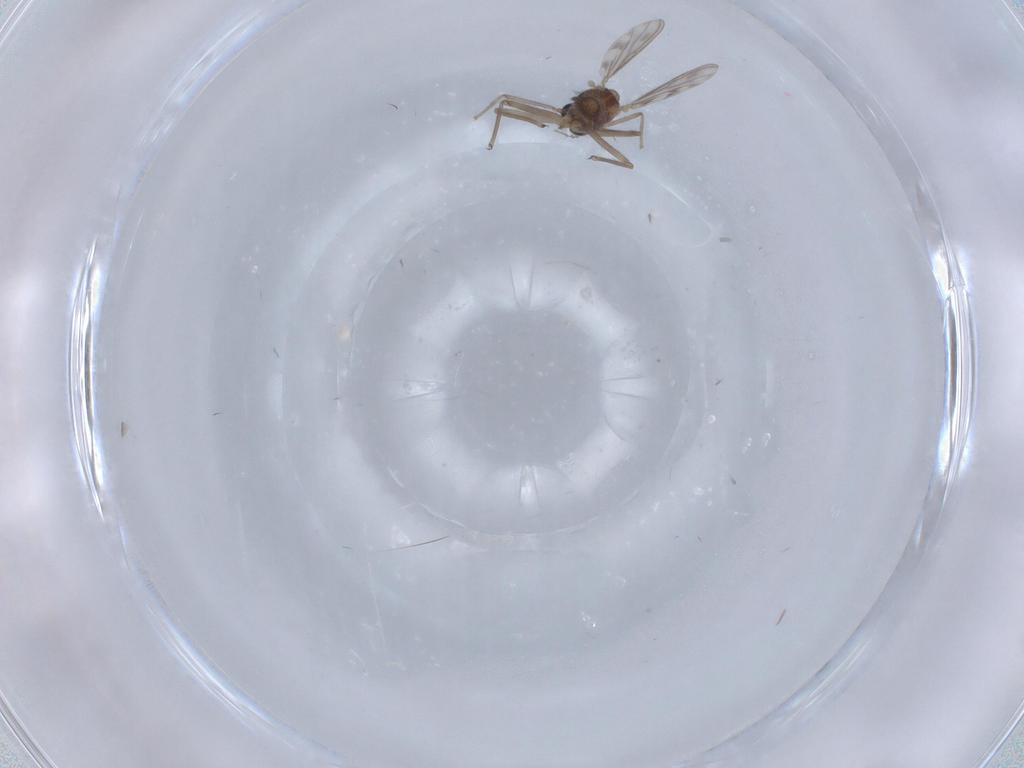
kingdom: Animalia
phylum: Arthropoda
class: Insecta
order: Diptera
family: Chironomidae
